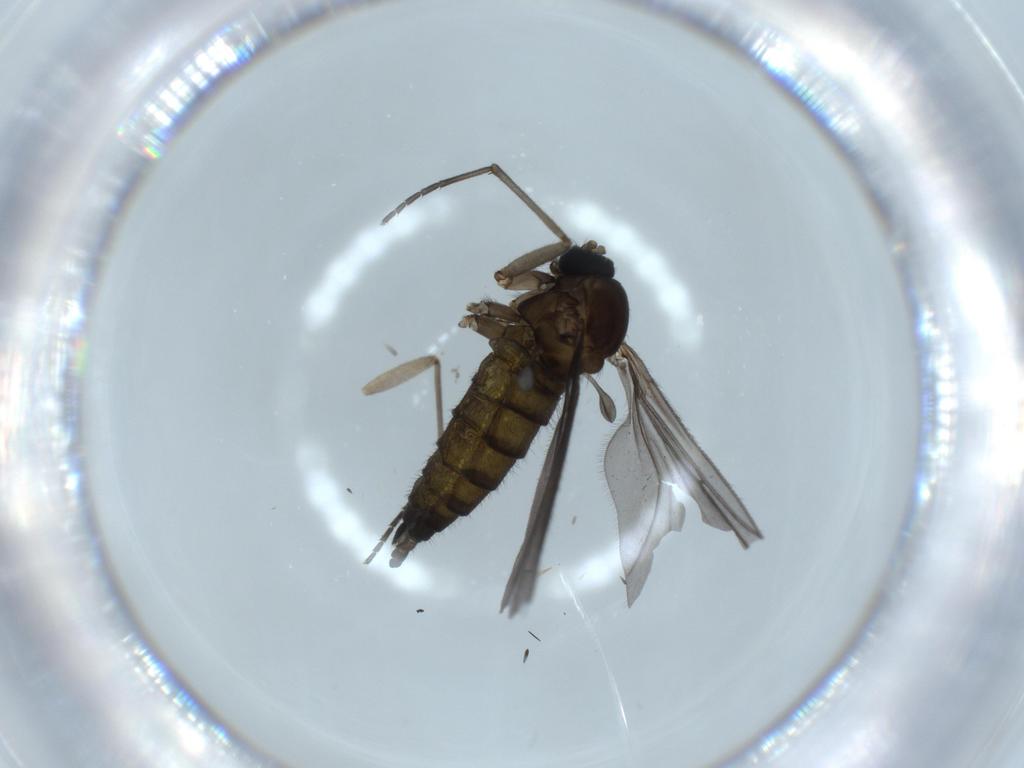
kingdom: Animalia
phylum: Arthropoda
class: Insecta
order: Diptera
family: Sciaridae
